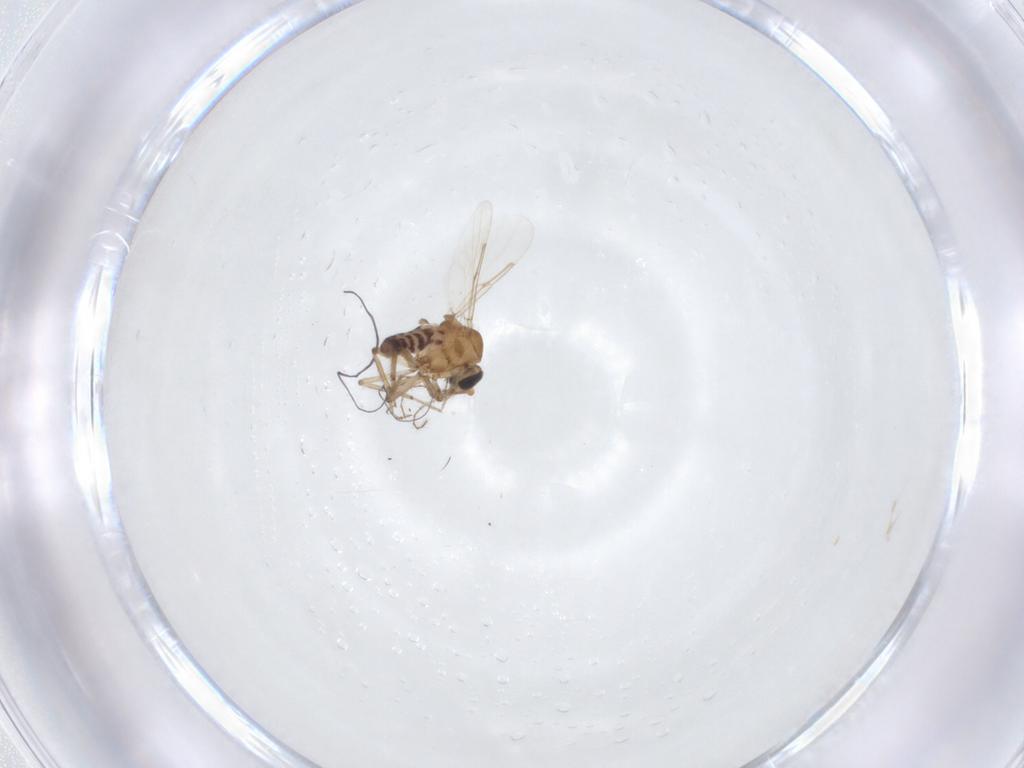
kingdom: Animalia
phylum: Arthropoda
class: Insecta
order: Diptera
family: Ceratopogonidae
